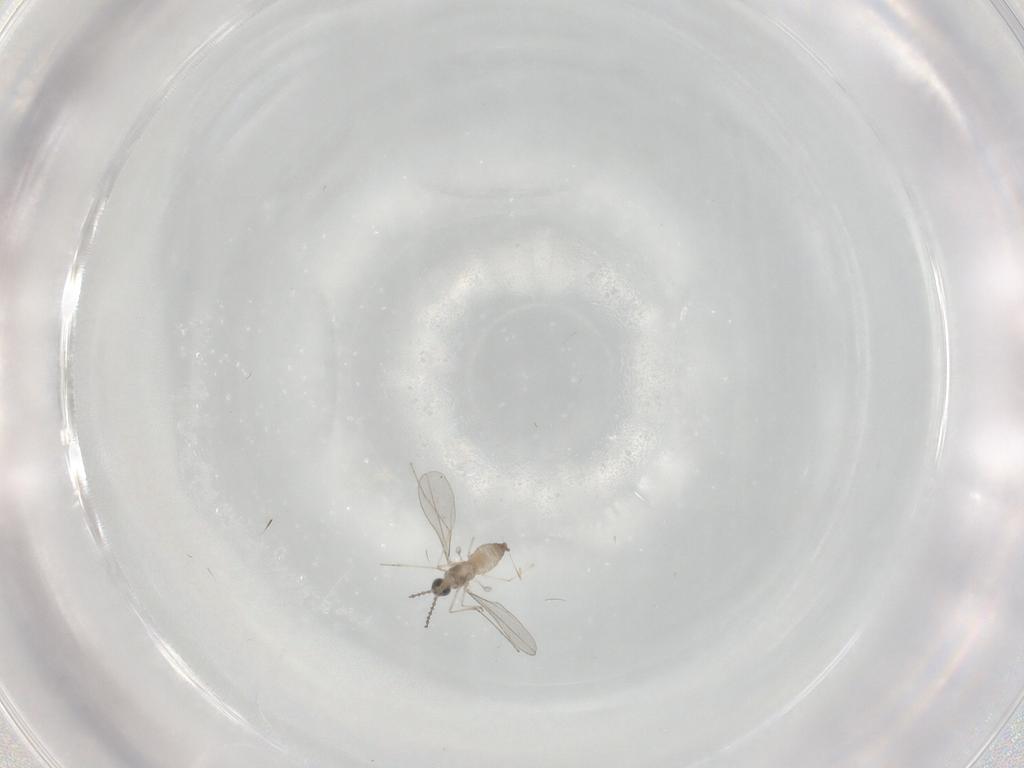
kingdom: Animalia
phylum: Arthropoda
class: Insecta
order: Diptera
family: Cecidomyiidae
